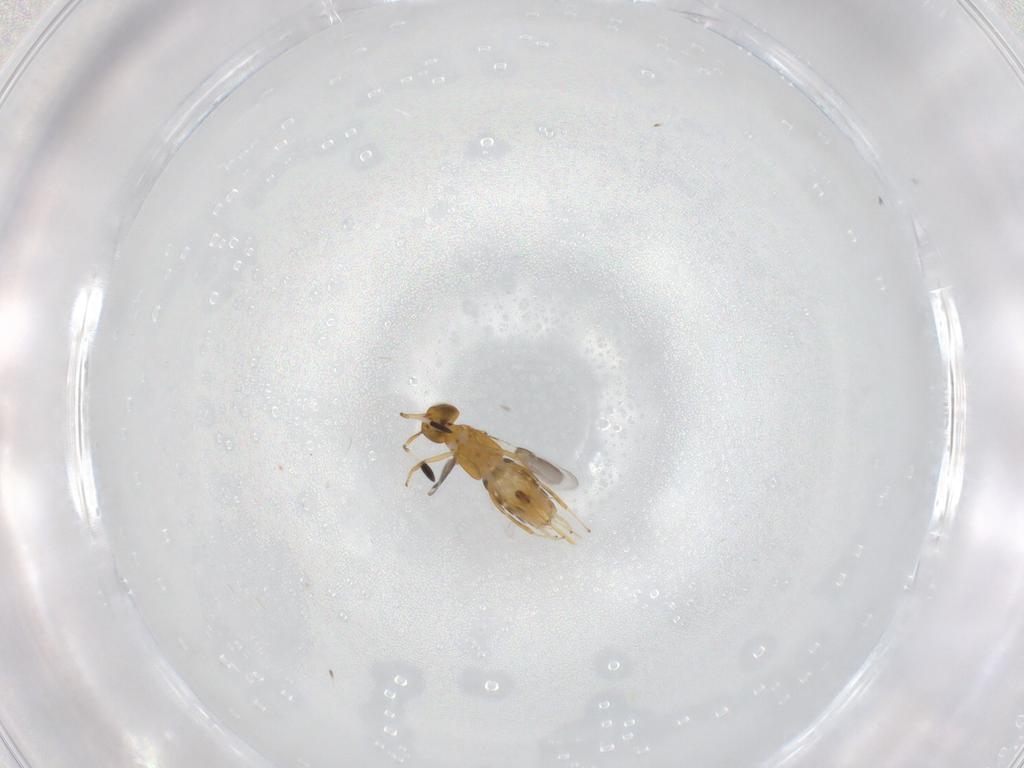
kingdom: Animalia
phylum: Arthropoda
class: Insecta
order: Hymenoptera
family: Encyrtidae
